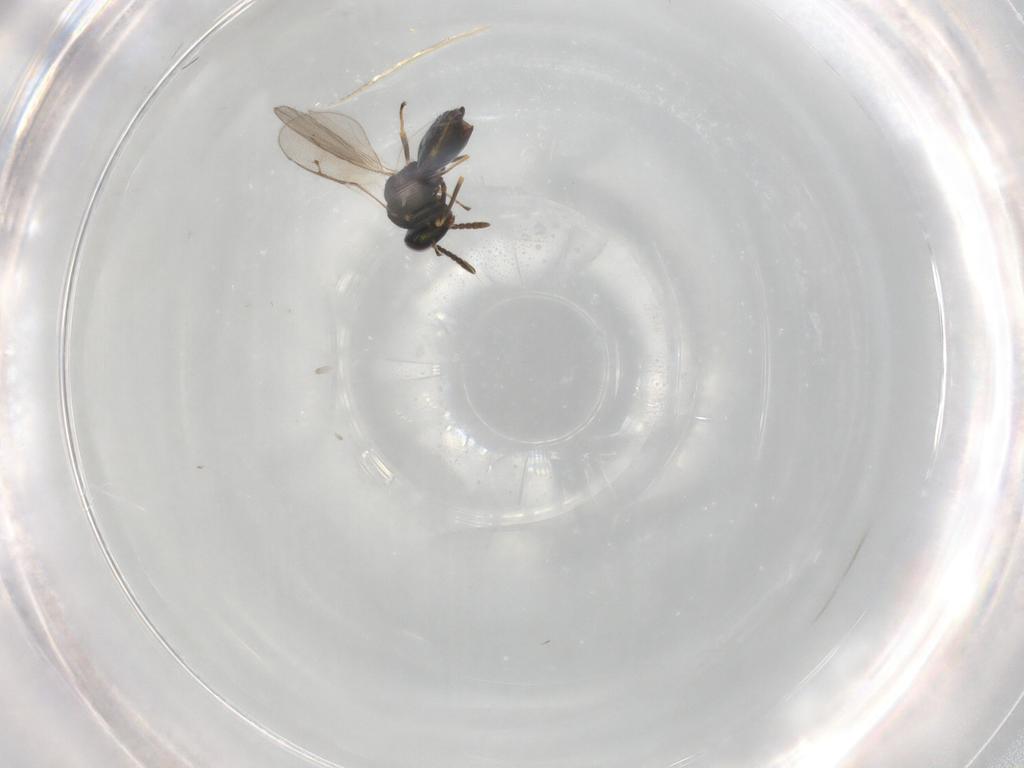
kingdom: Animalia
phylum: Arthropoda
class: Insecta
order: Hymenoptera
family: Pteromalidae
